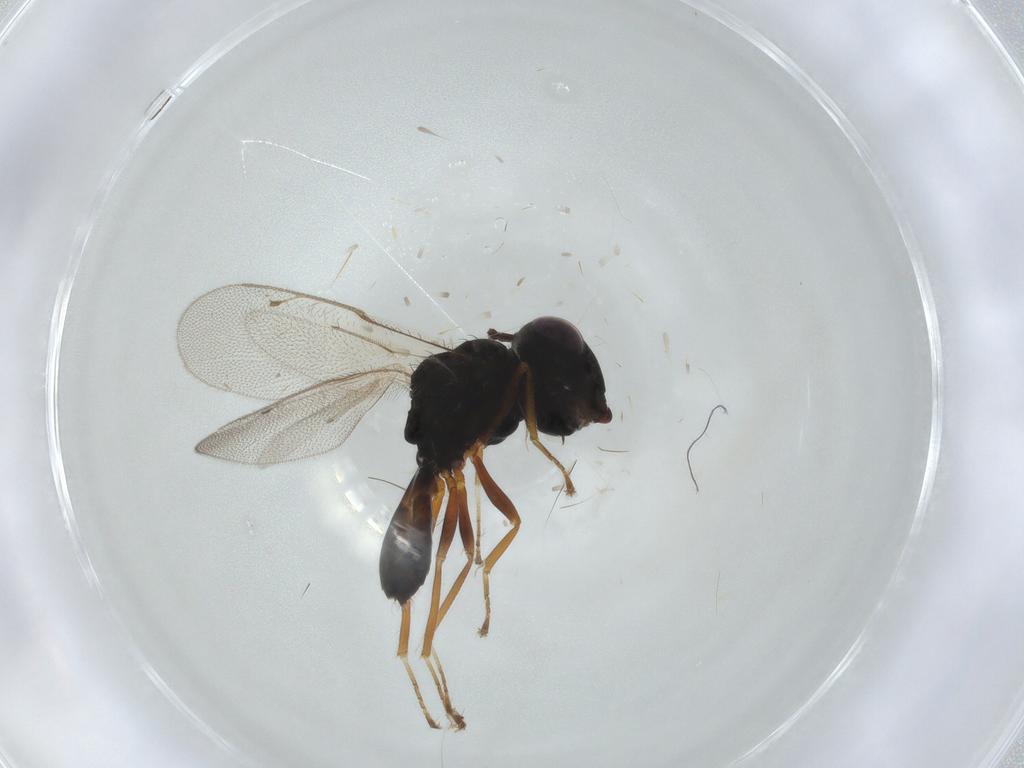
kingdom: Animalia
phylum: Arthropoda
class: Insecta
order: Hymenoptera
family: Pteromalidae
